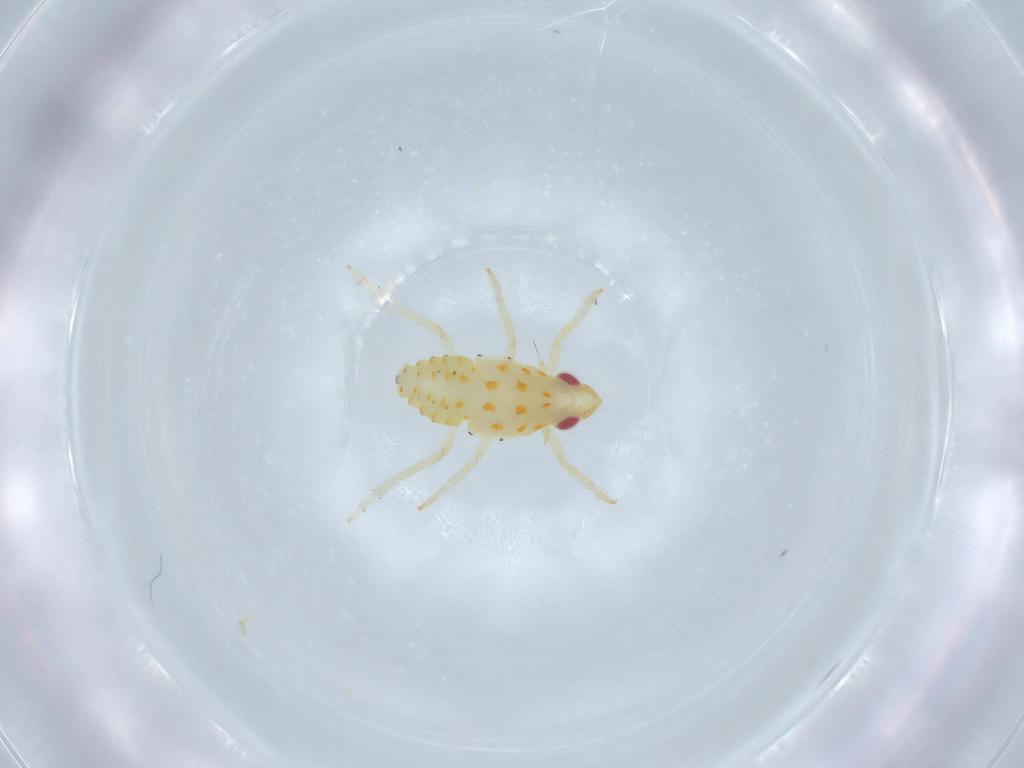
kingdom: Animalia
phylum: Arthropoda
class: Insecta
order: Hemiptera
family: Tropiduchidae
